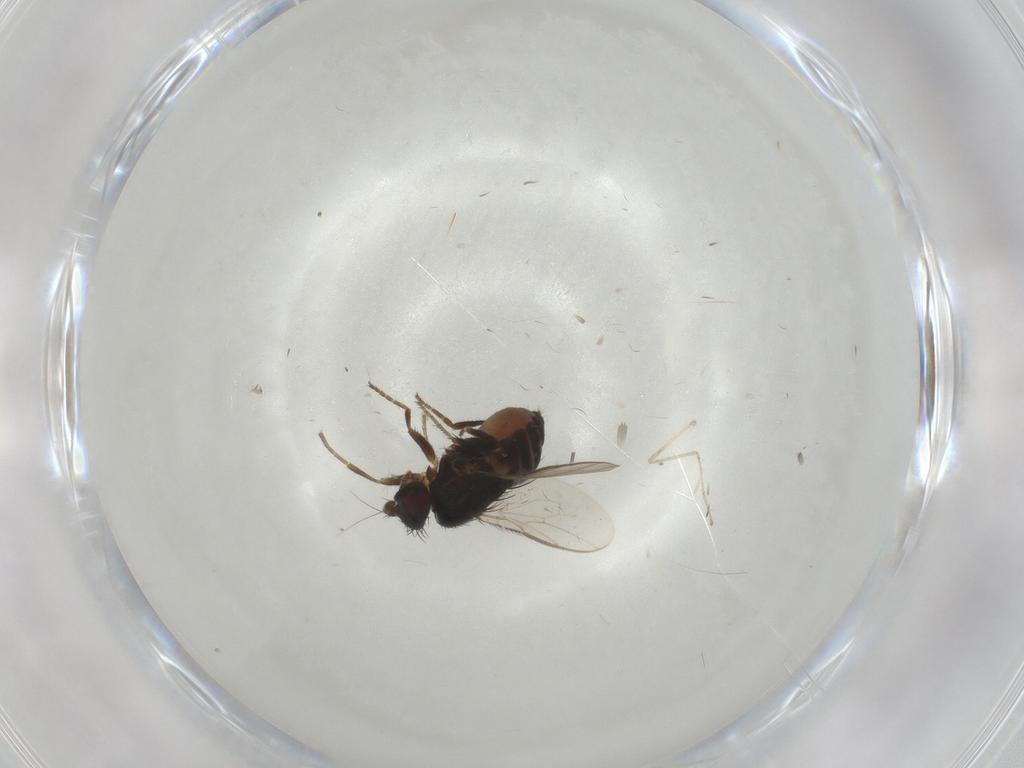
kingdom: Animalia
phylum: Arthropoda
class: Insecta
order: Diptera
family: Sphaeroceridae
